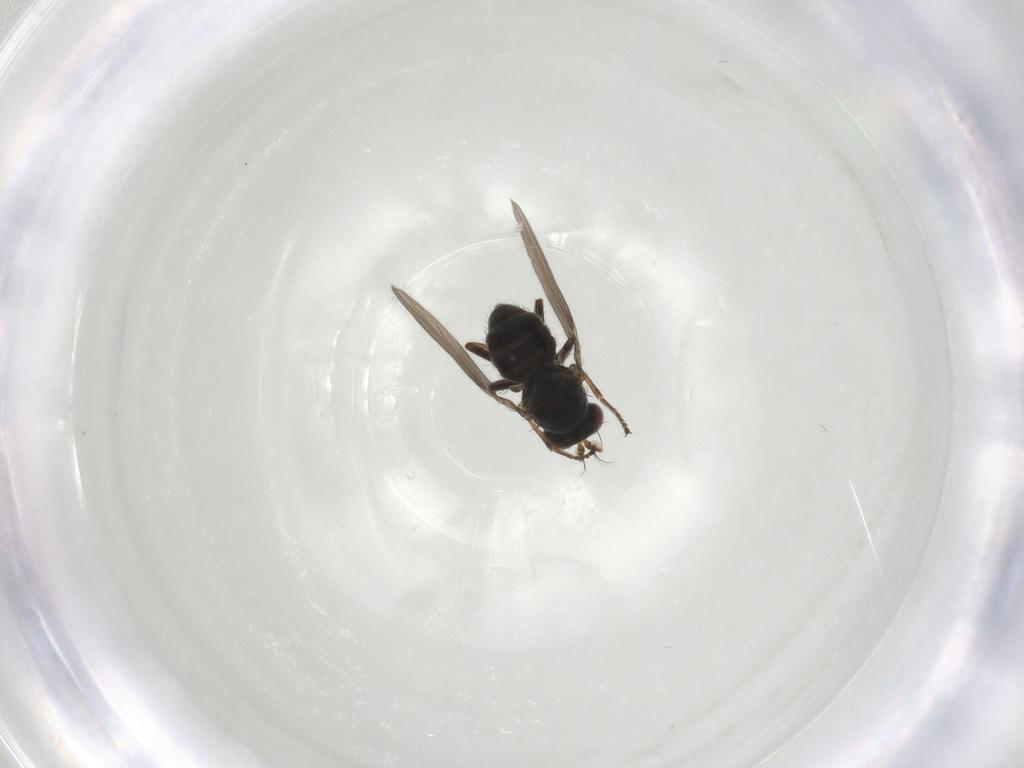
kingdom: Animalia
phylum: Arthropoda
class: Insecta
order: Diptera
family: Ephydridae
